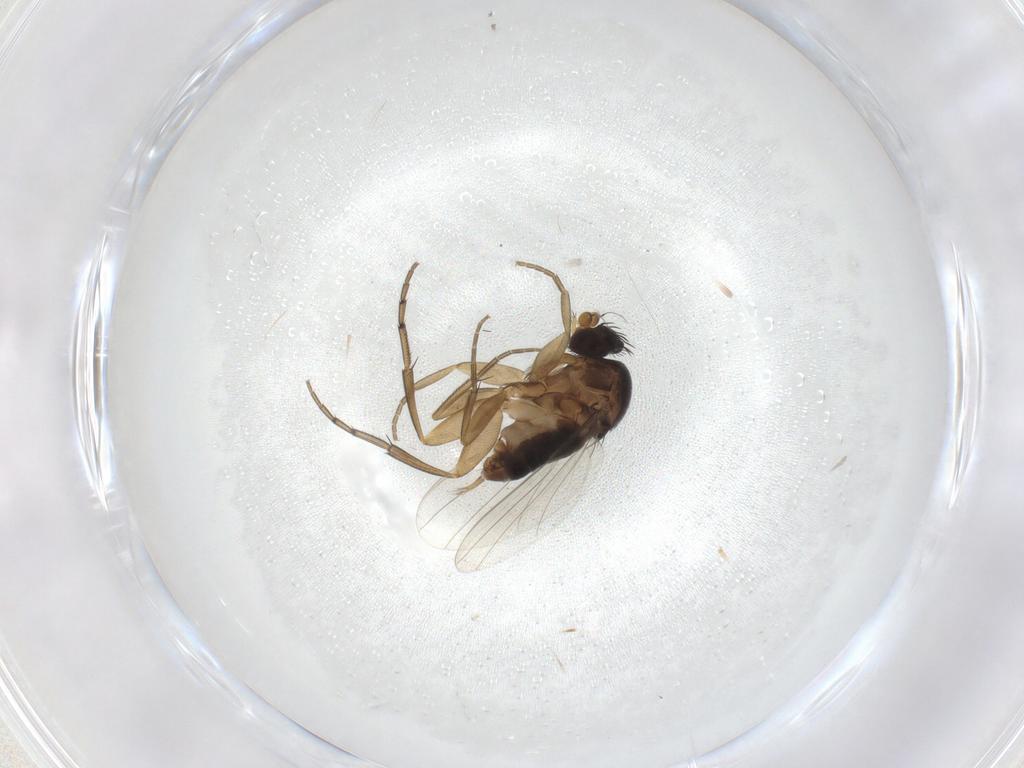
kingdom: Animalia
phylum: Arthropoda
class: Insecta
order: Diptera
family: Phoridae
